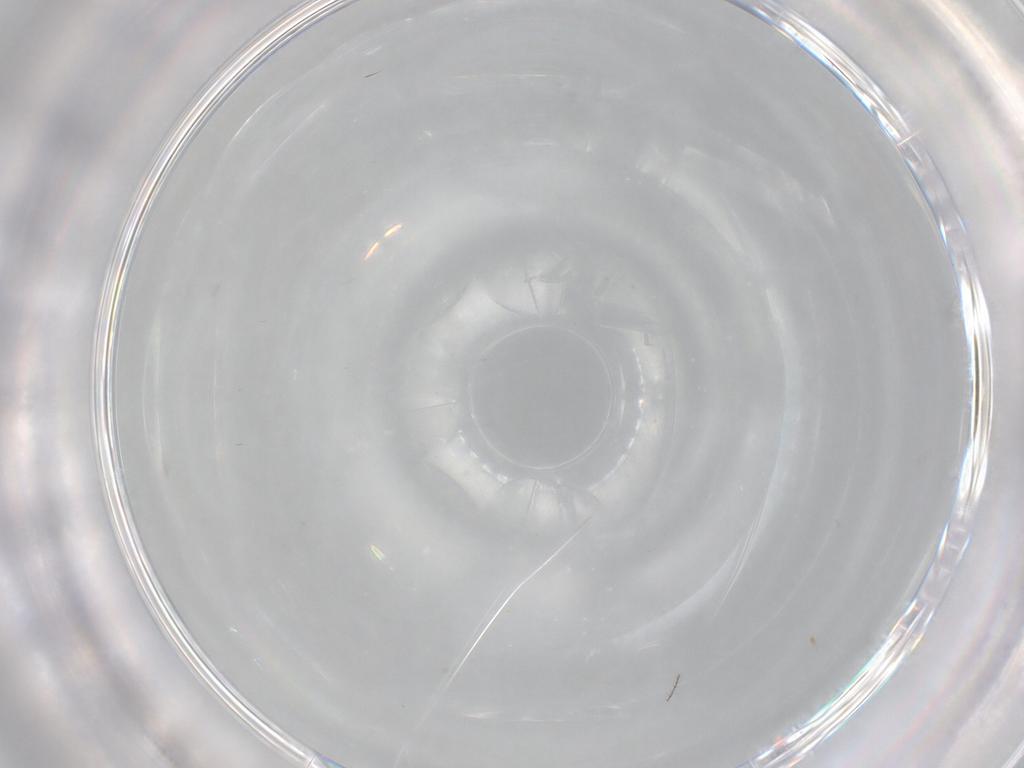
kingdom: Animalia
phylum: Arthropoda
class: Insecta
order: Diptera
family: Ceratopogonidae
